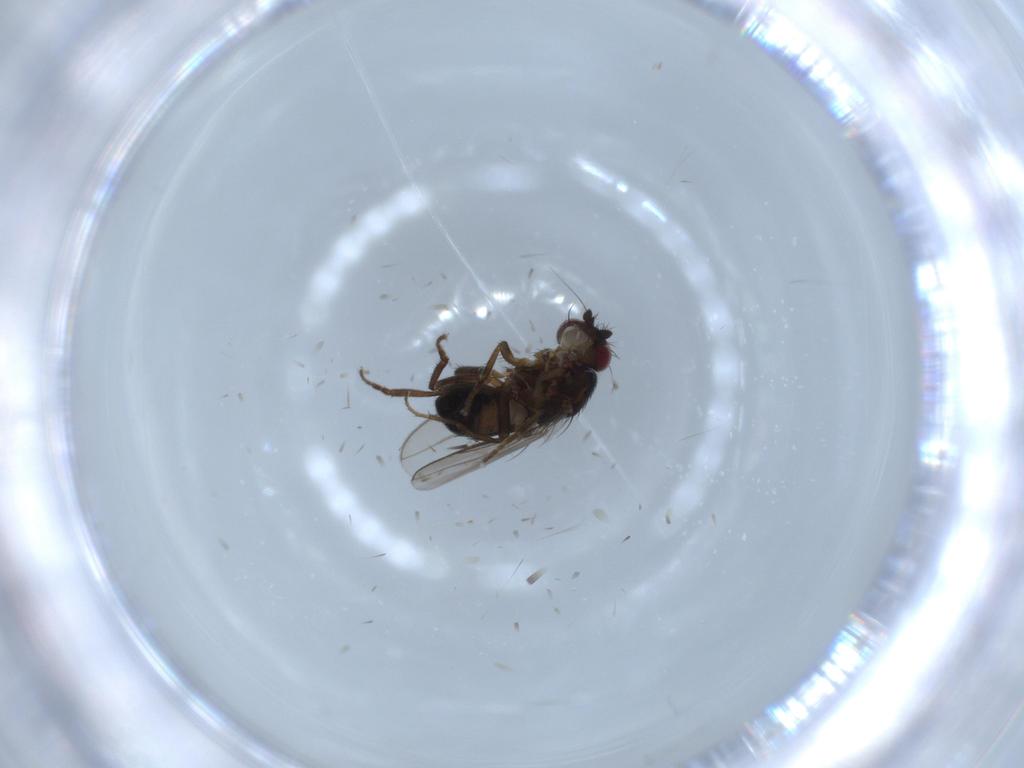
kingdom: Animalia
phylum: Arthropoda
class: Insecta
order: Diptera
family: Sphaeroceridae
